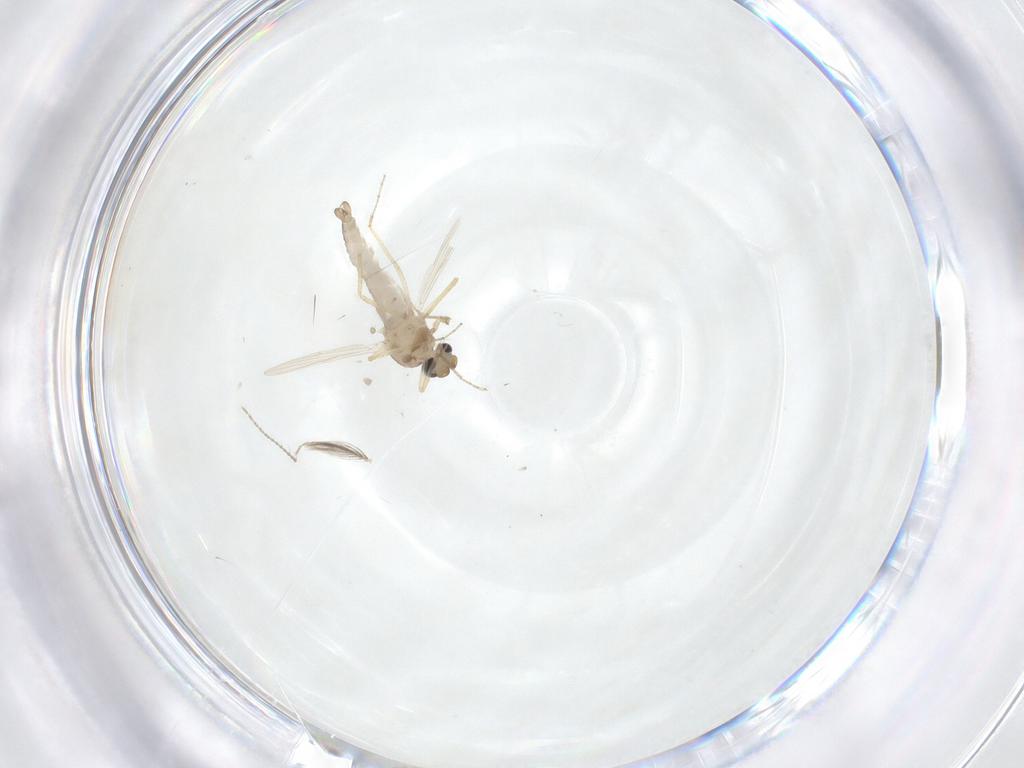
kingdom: Animalia
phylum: Arthropoda
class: Insecta
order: Diptera
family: Ceratopogonidae
